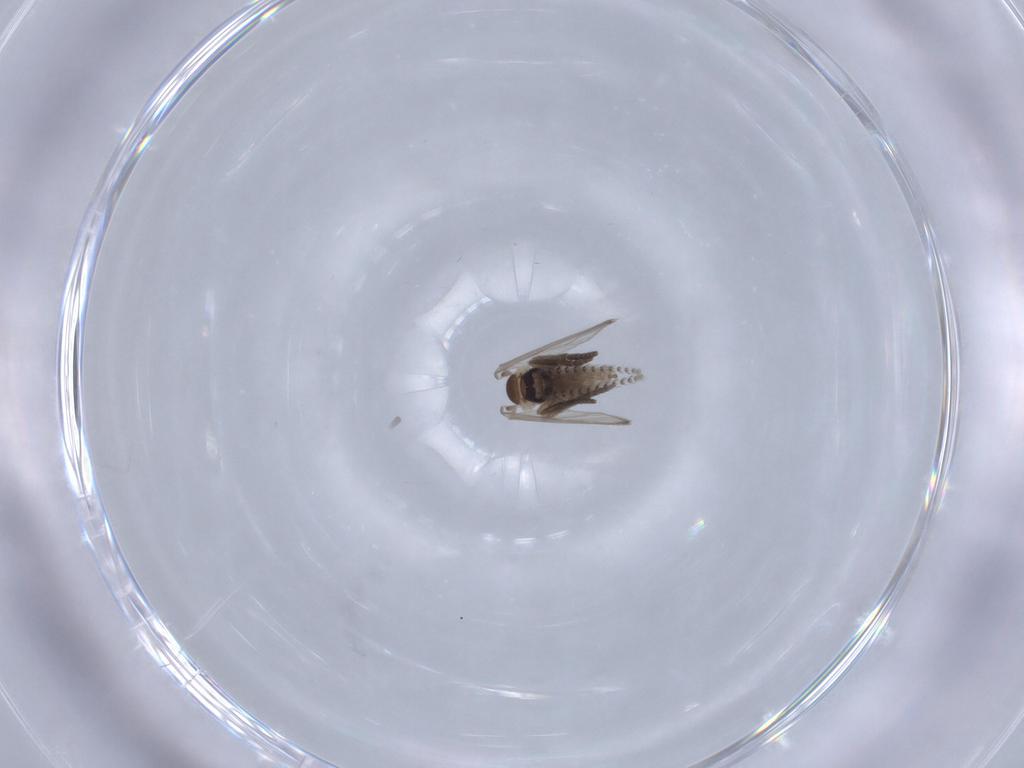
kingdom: Animalia
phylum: Arthropoda
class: Insecta
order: Diptera
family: Psychodidae
